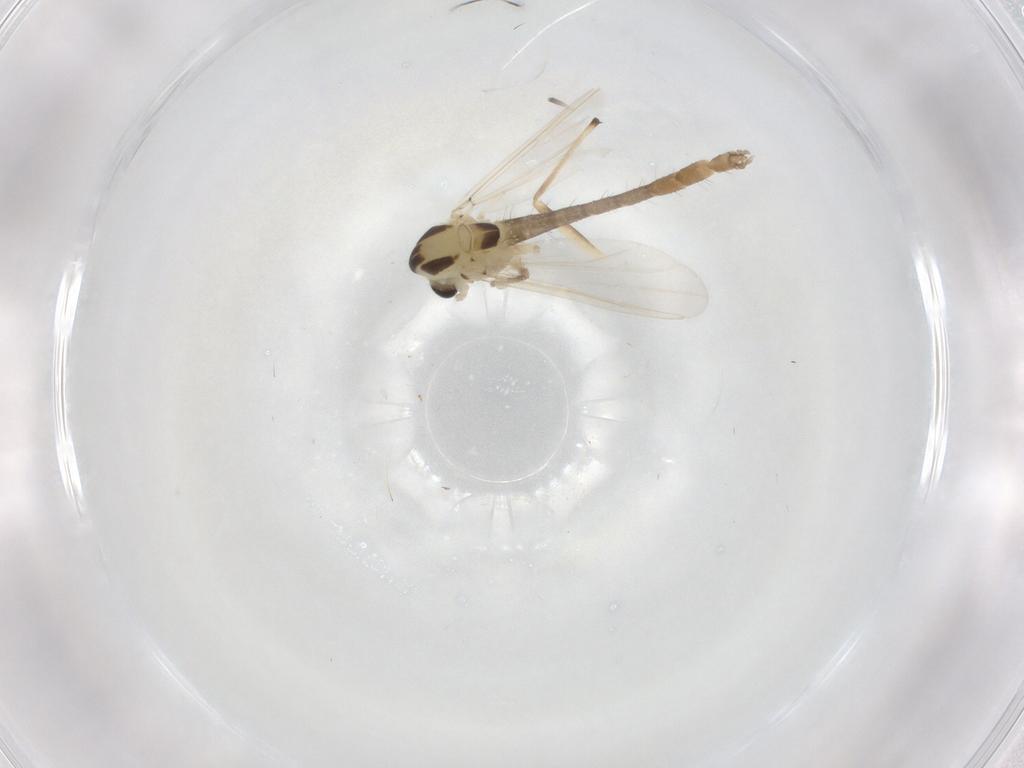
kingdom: Animalia
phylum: Arthropoda
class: Insecta
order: Diptera
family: Chironomidae
